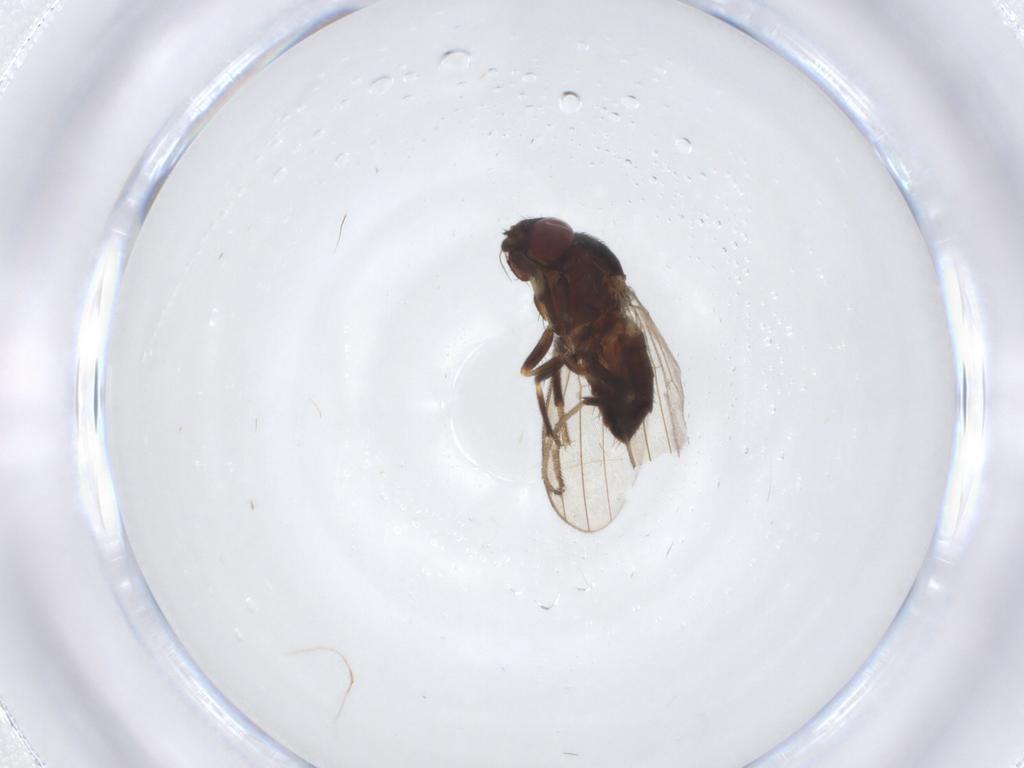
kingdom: Animalia
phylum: Arthropoda
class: Insecta
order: Diptera
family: Milichiidae
